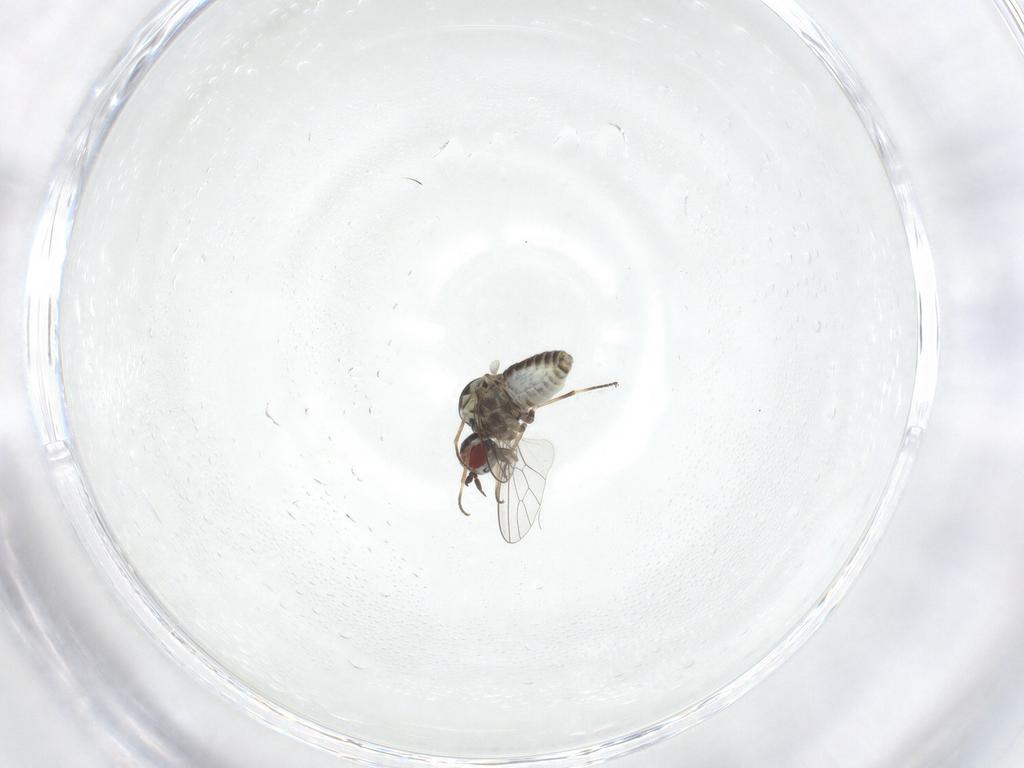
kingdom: Animalia
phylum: Arthropoda
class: Insecta
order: Diptera
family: Mythicomyiidae
